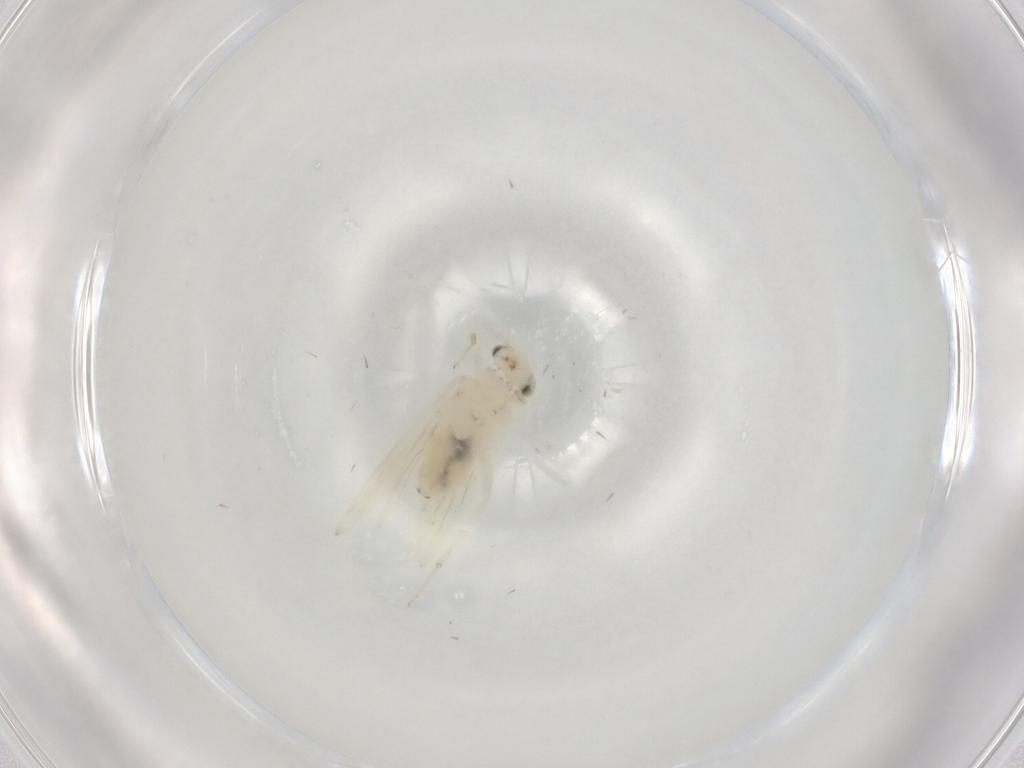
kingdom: Animalia
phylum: Arthropoda
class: Insecta
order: Psocodea
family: Lepidopsocidae
